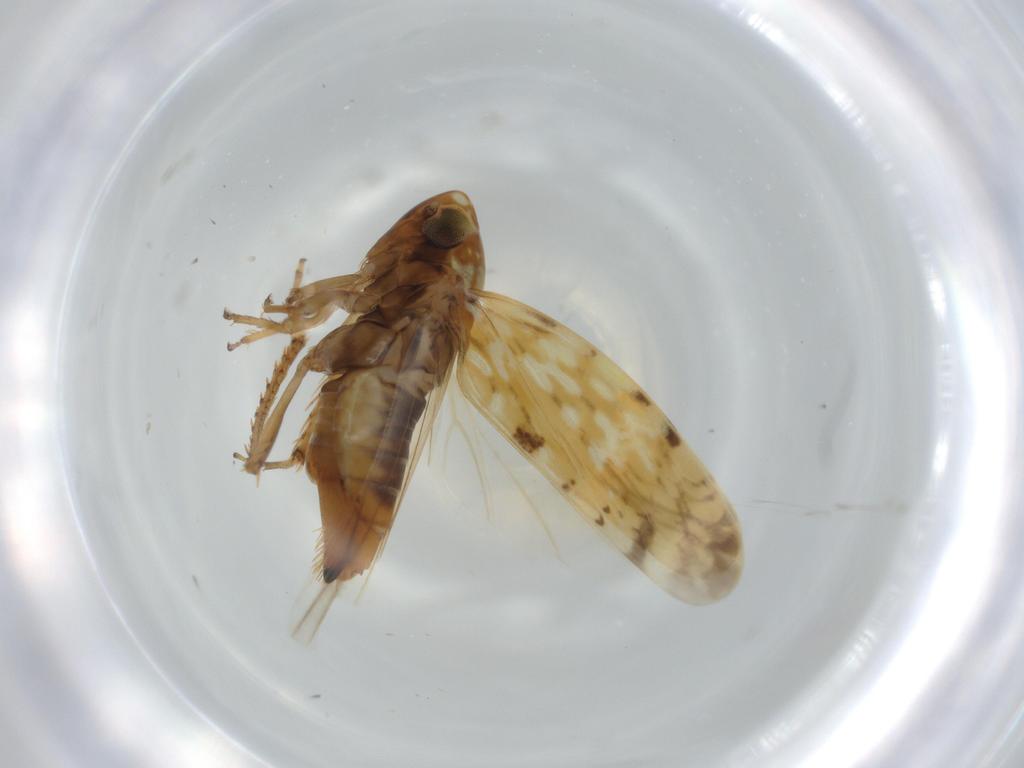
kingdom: Animalia
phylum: Arthropoda
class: Insecta
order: Hemiptera
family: Cicadellidae
